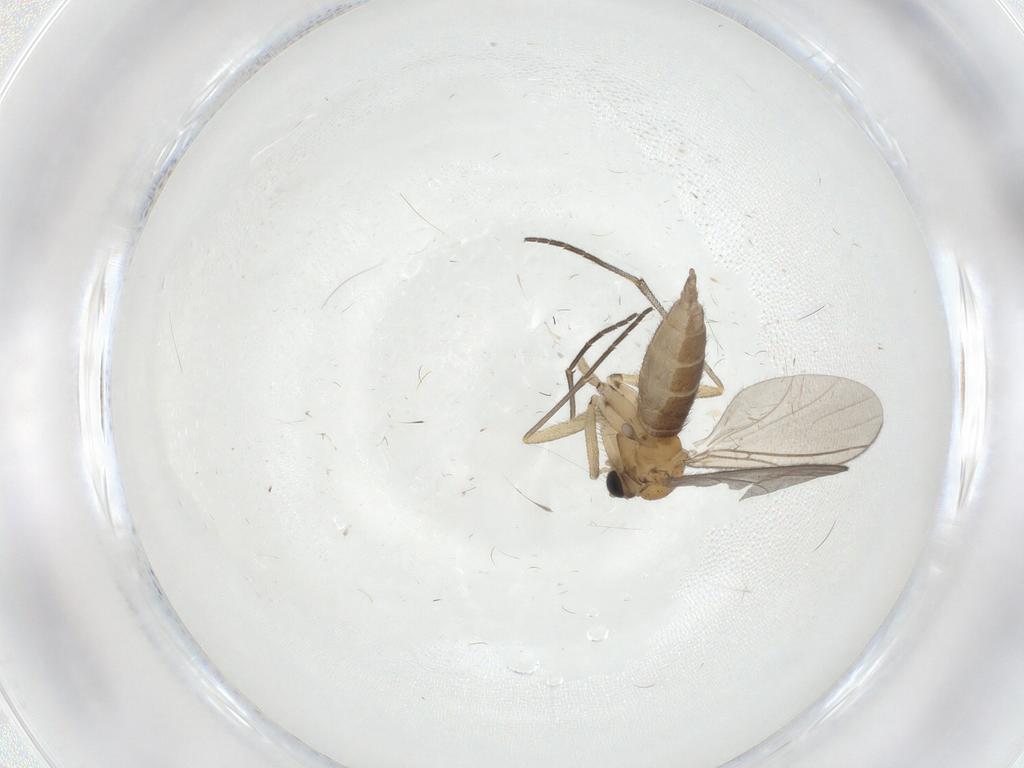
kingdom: Animalia
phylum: Arthropoda
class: Insecta
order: Diptera
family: Sciaridae
